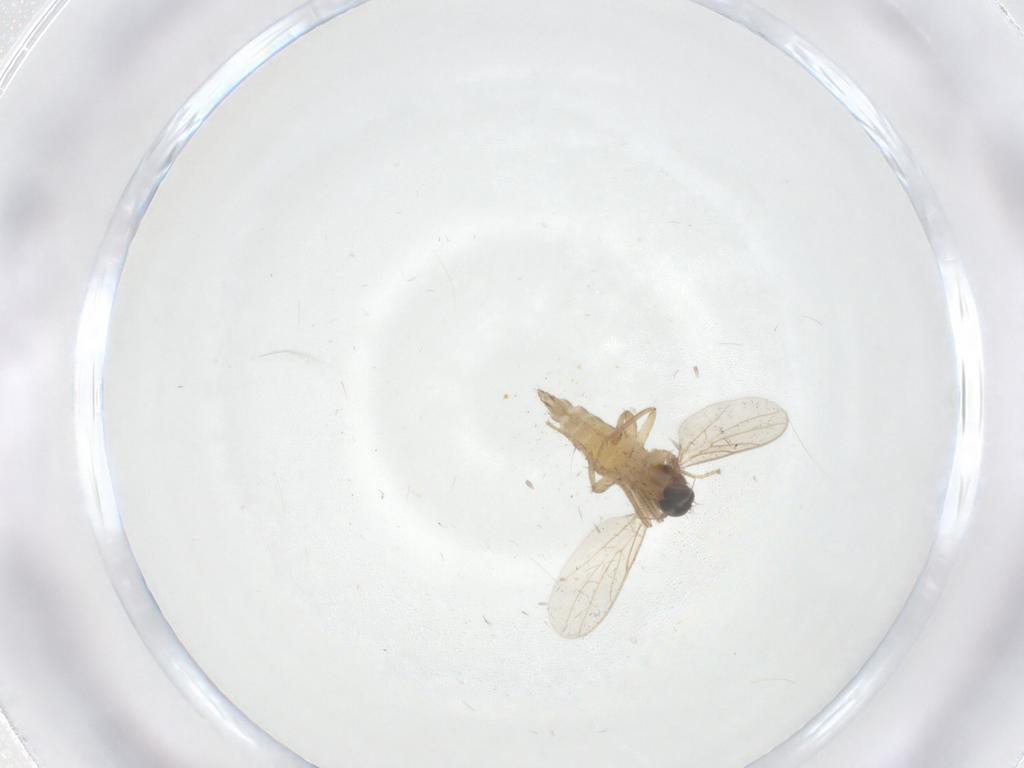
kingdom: Animalia
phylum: Arthropoda
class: Insecta
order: Diptera
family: Hybotidae
